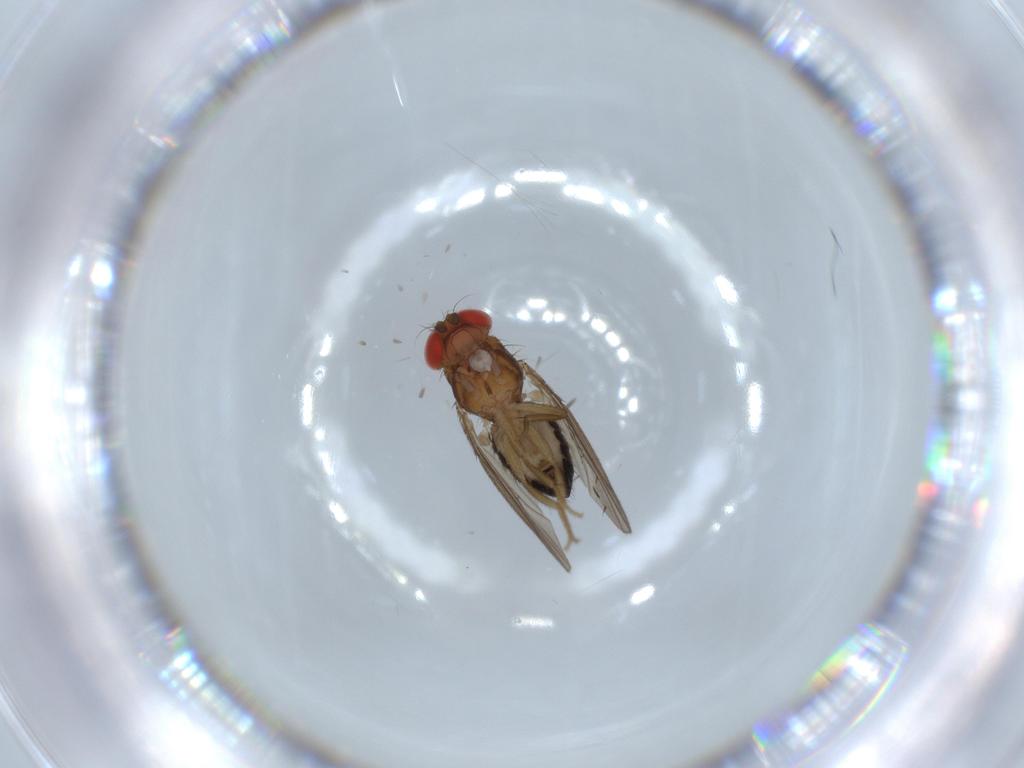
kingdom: Animalia
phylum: Arthropoda
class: Insecta
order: Diptera
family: Drosophilidae
